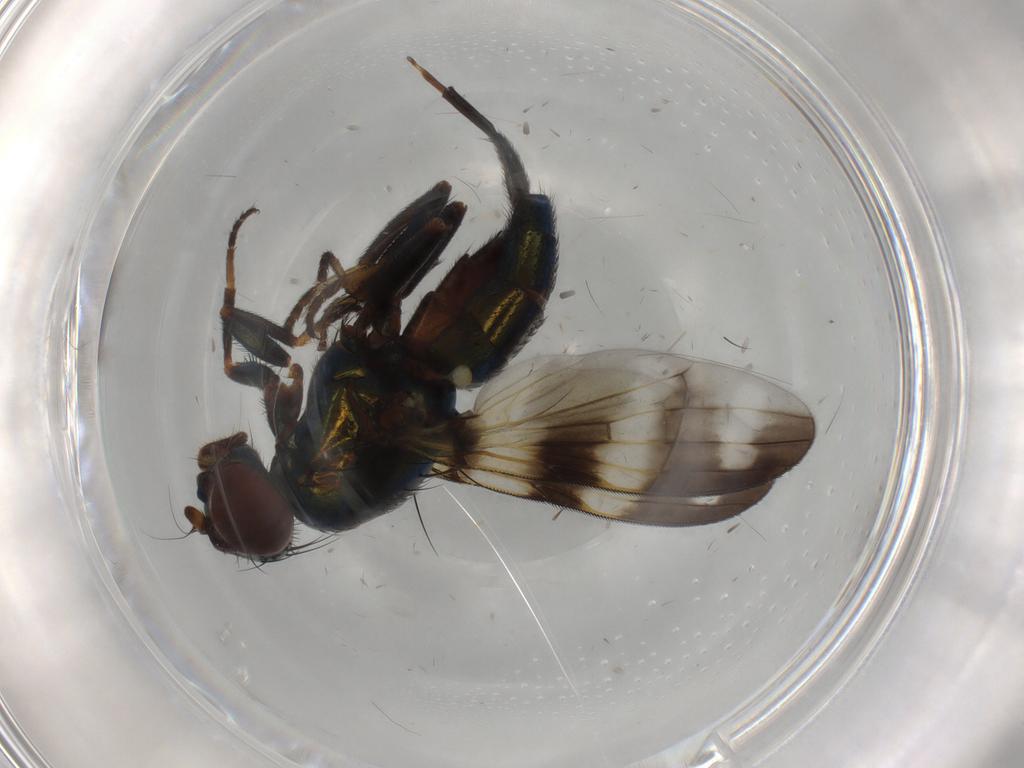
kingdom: Animalia
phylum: Arthropoda
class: Insecta
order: Diptera
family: Ulidiidae
